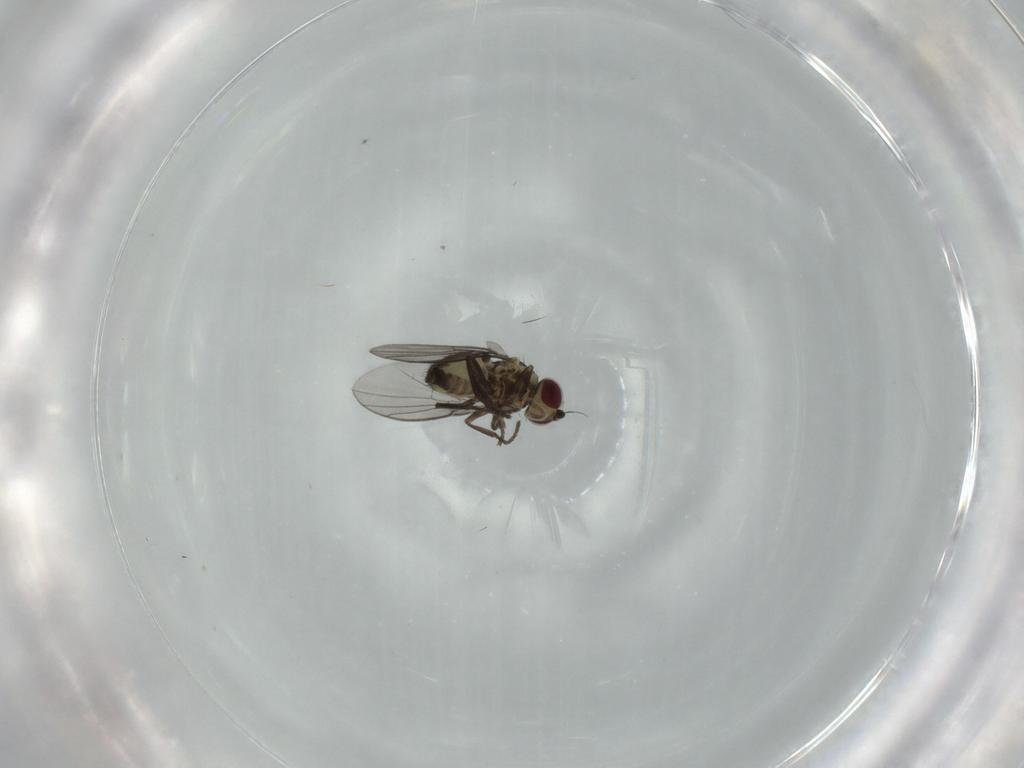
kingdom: Animalia
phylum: Arthropoda
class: Insecta
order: Diptera
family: Agromyzidae
